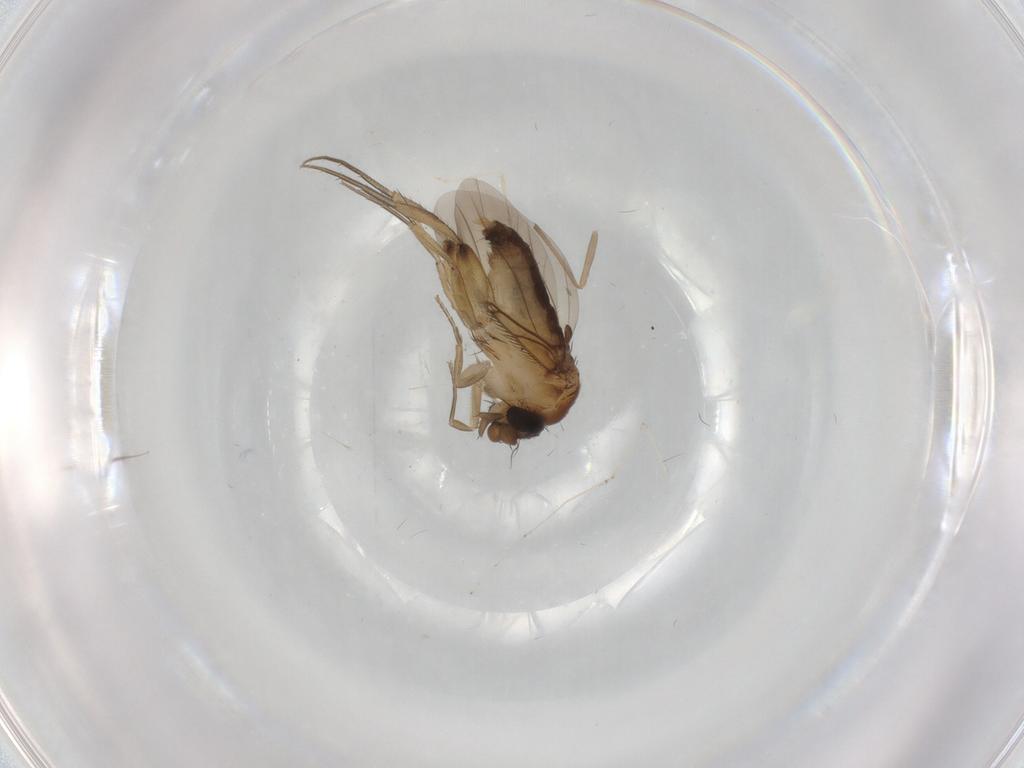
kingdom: Animalia
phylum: Arthropoda
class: Insecta
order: Diptera
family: Phoridae
